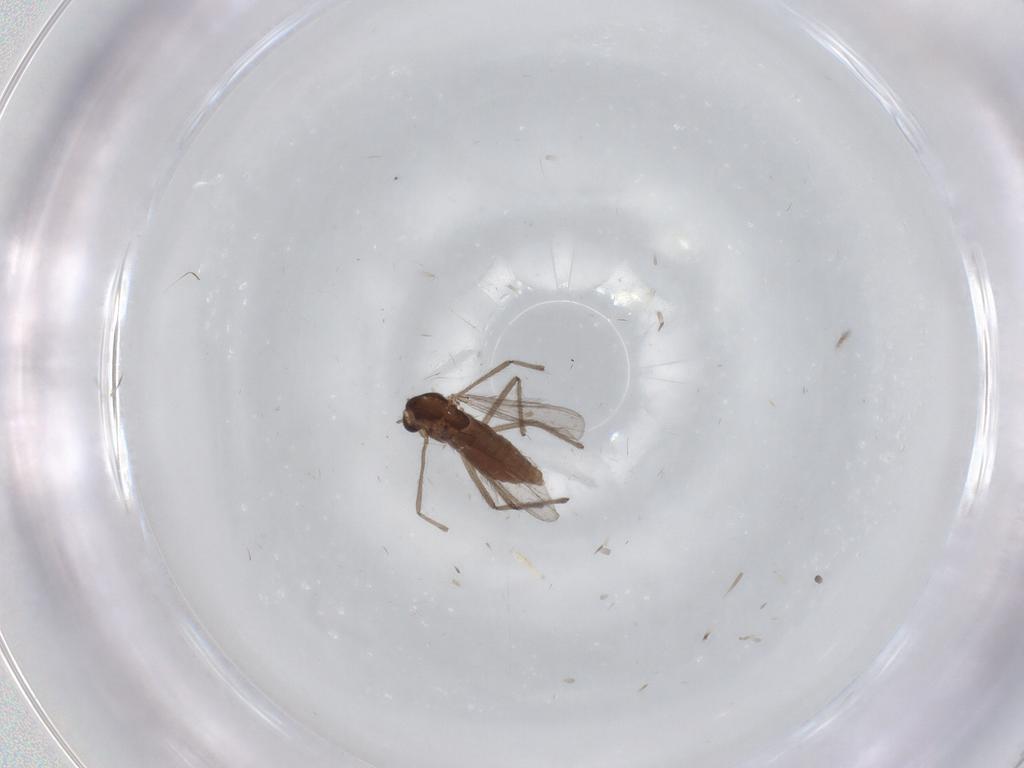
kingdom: Animalia
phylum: Arthropoda
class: Insecta
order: Diptera
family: Chironomidae
